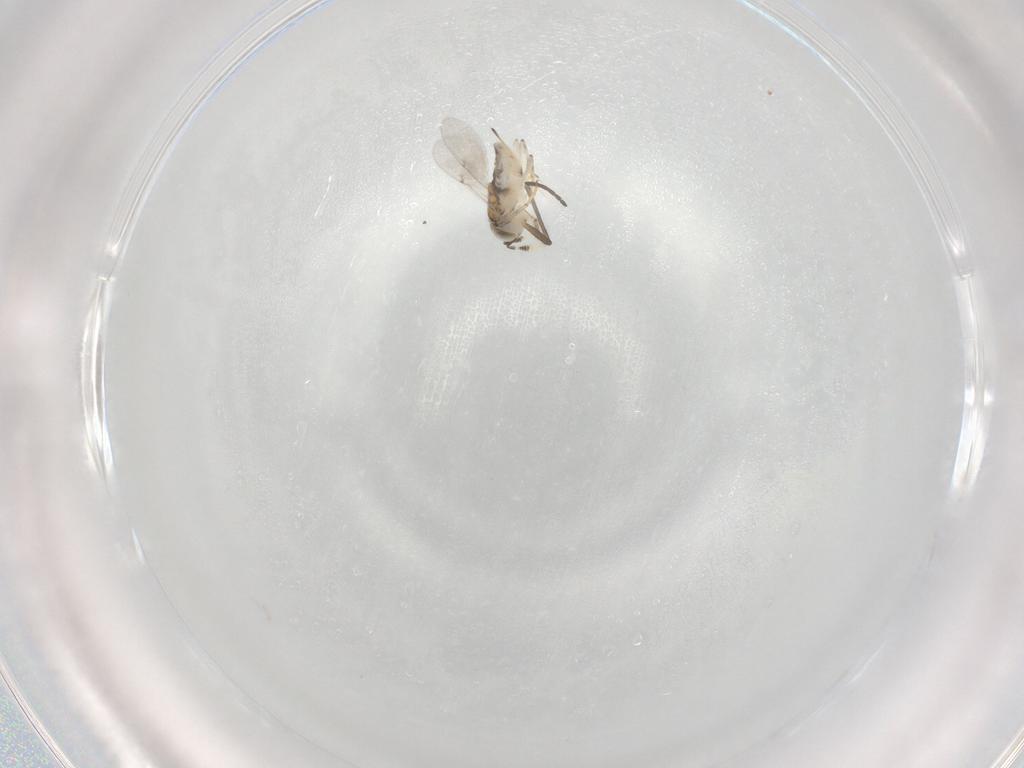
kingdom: Animalia
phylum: Arthropoda
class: Insecta
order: Hymenoptera
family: Encyrtidae
